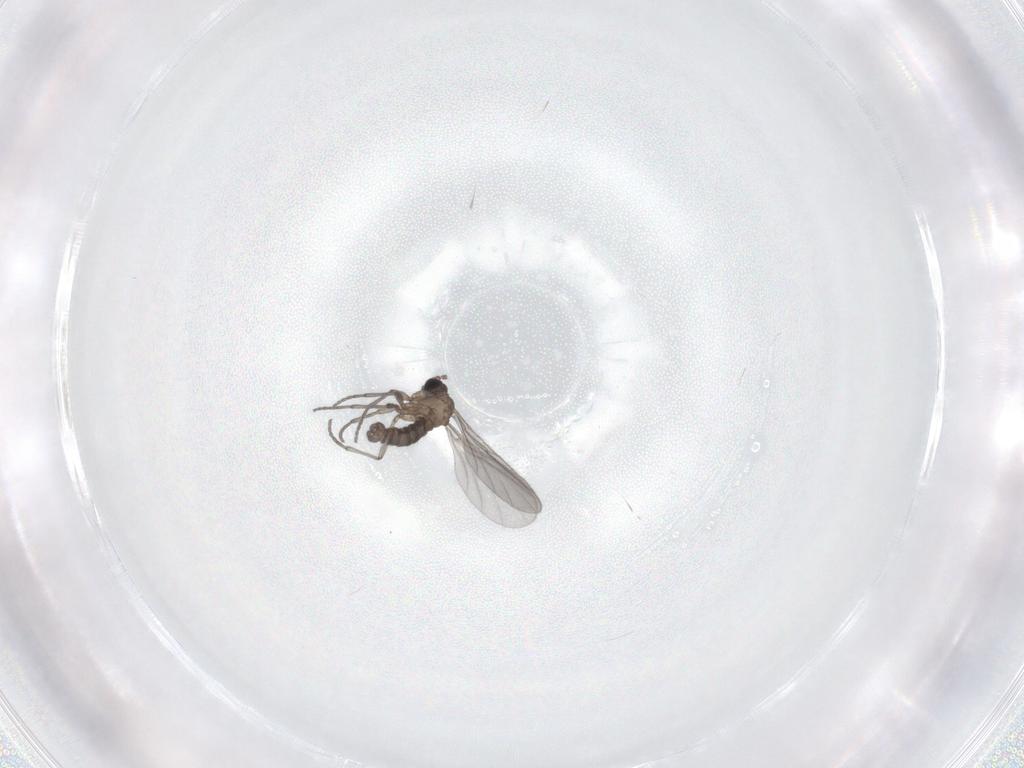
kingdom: Animalia
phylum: Arthropoda
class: Insecta
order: Diptera
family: Sciaridae
